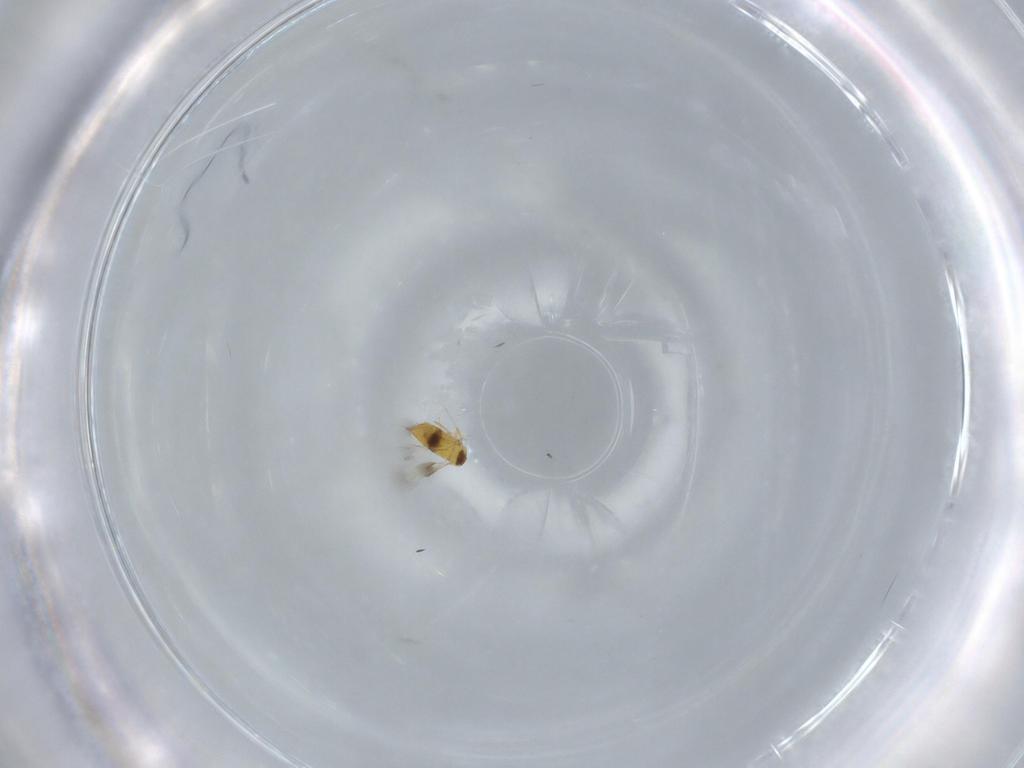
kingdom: Animalia
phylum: Arthropoda
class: Insecta
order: Hymenoptera
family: Signiphoridae
